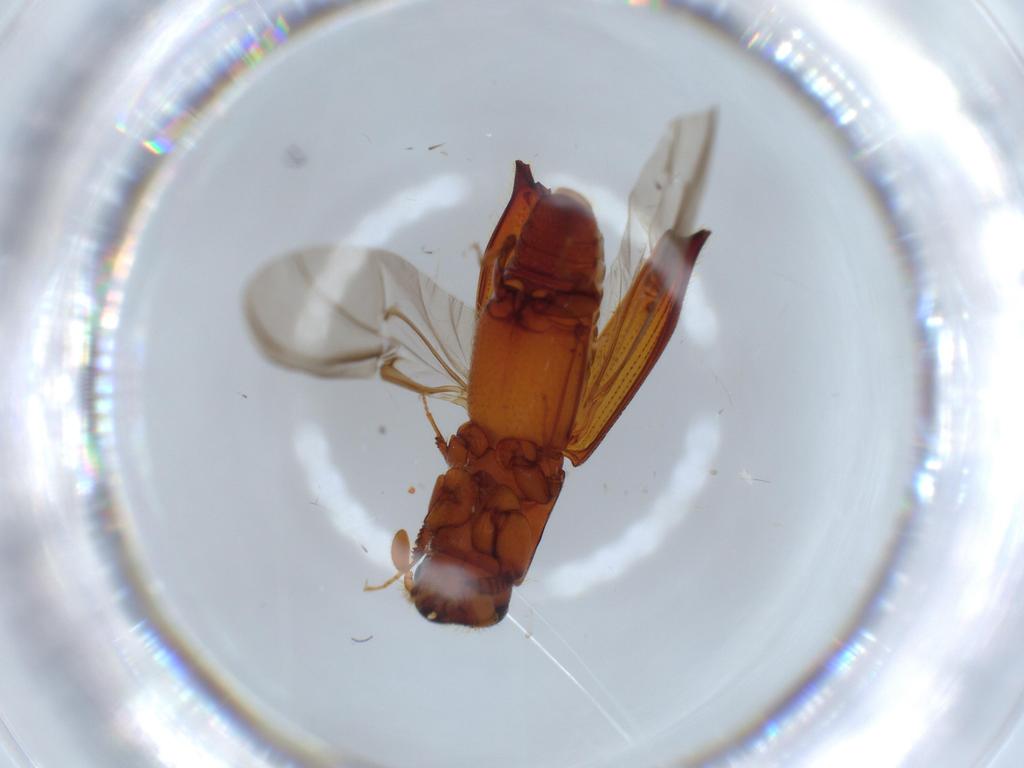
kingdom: Animalia
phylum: Arthropoda
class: Insecta
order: Coleoptera
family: Curculionidae
